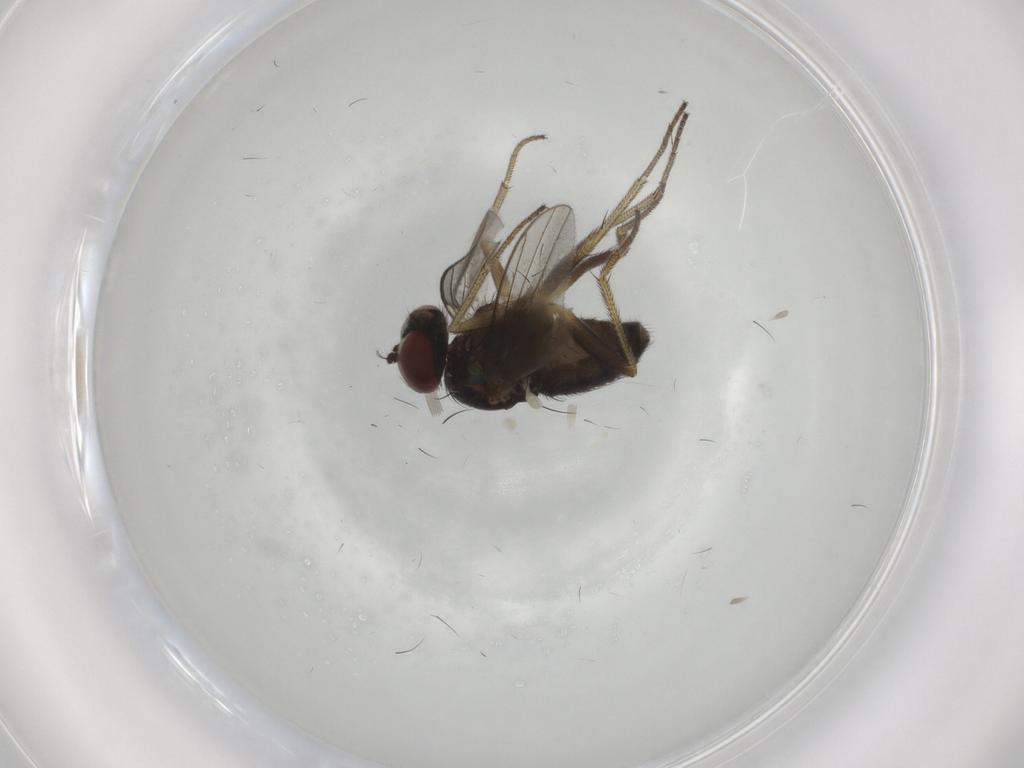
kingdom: Animalia
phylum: Arthropoda
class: Insecta
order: Diptera
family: Dolichopodidae
